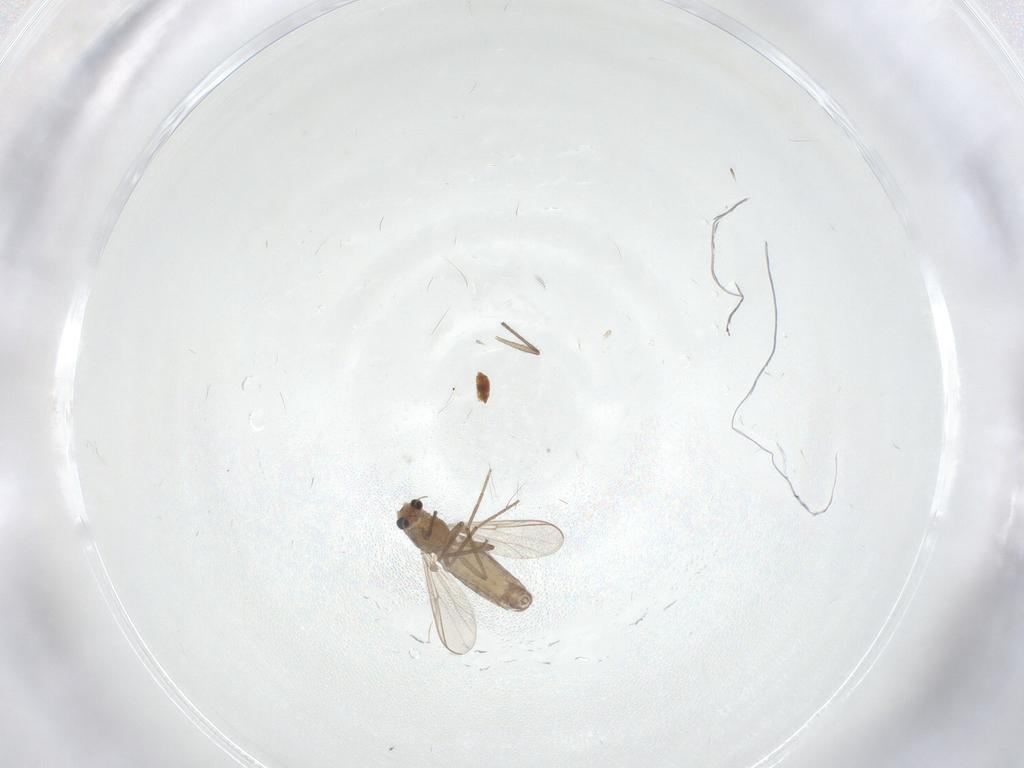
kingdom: Animalia
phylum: Arthropoda
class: Insecta
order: Diptera
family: Chironomidae
